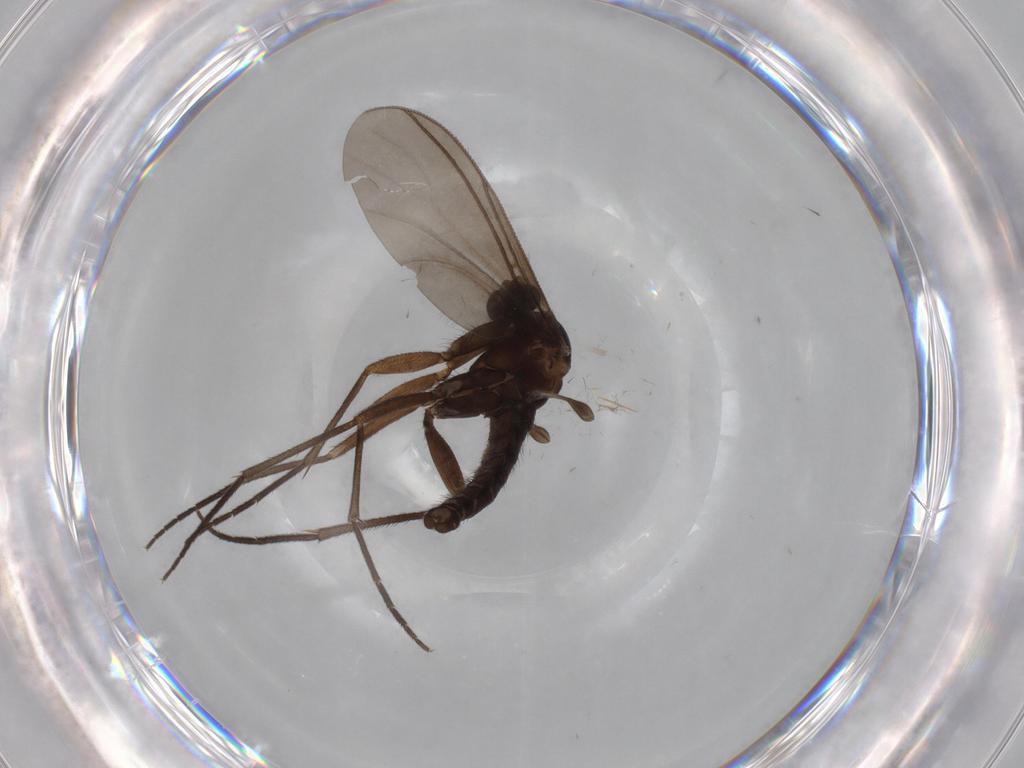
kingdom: Animalia
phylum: Arthropoda
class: Insecta
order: Diptera
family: Sciaridae
